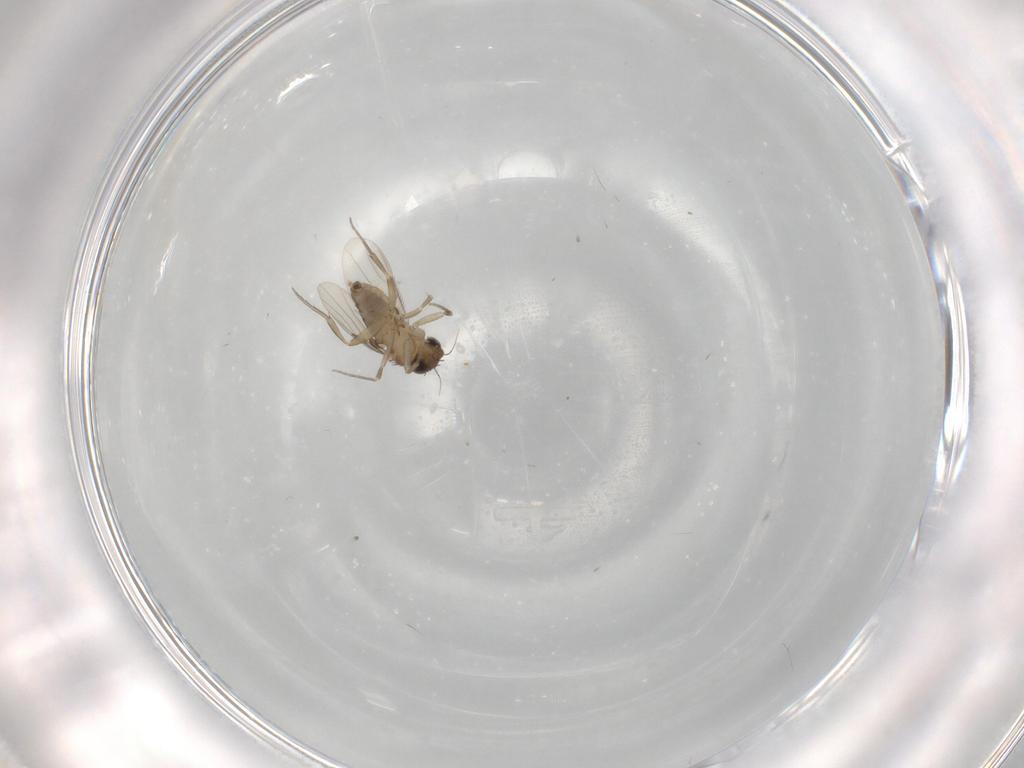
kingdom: Animalia
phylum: Arthropoda
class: Insecta
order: Diptera
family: Phoridae
